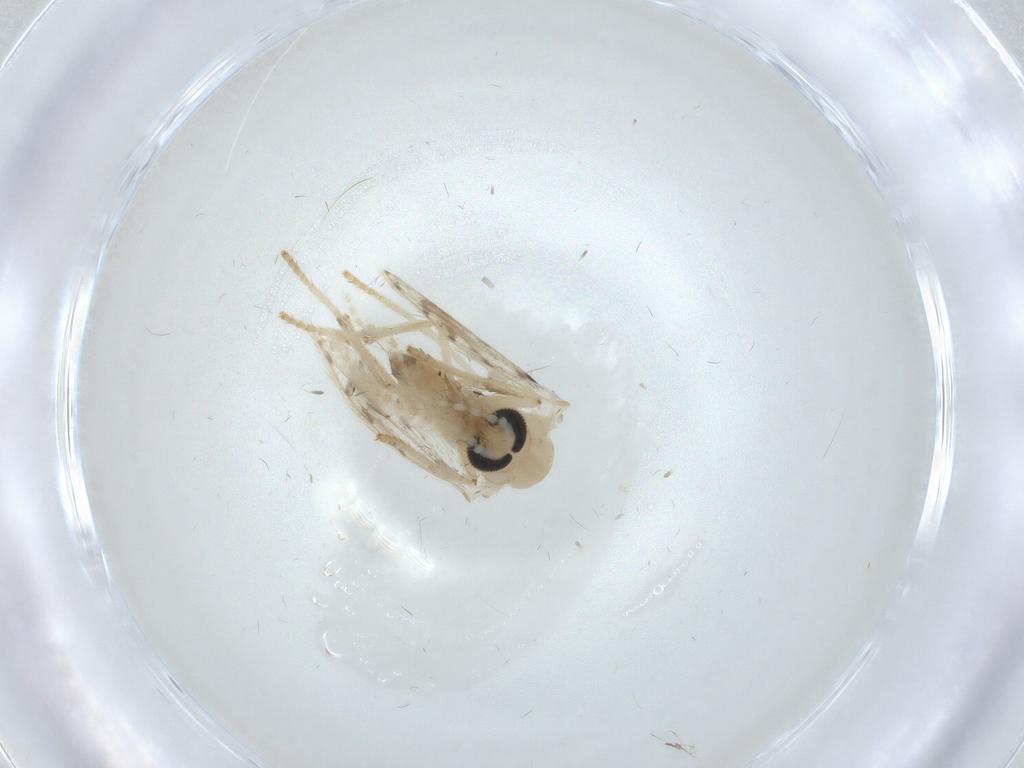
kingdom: Animalia
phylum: Arthropoda
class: Insecta
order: Diptera
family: Psychodidae
